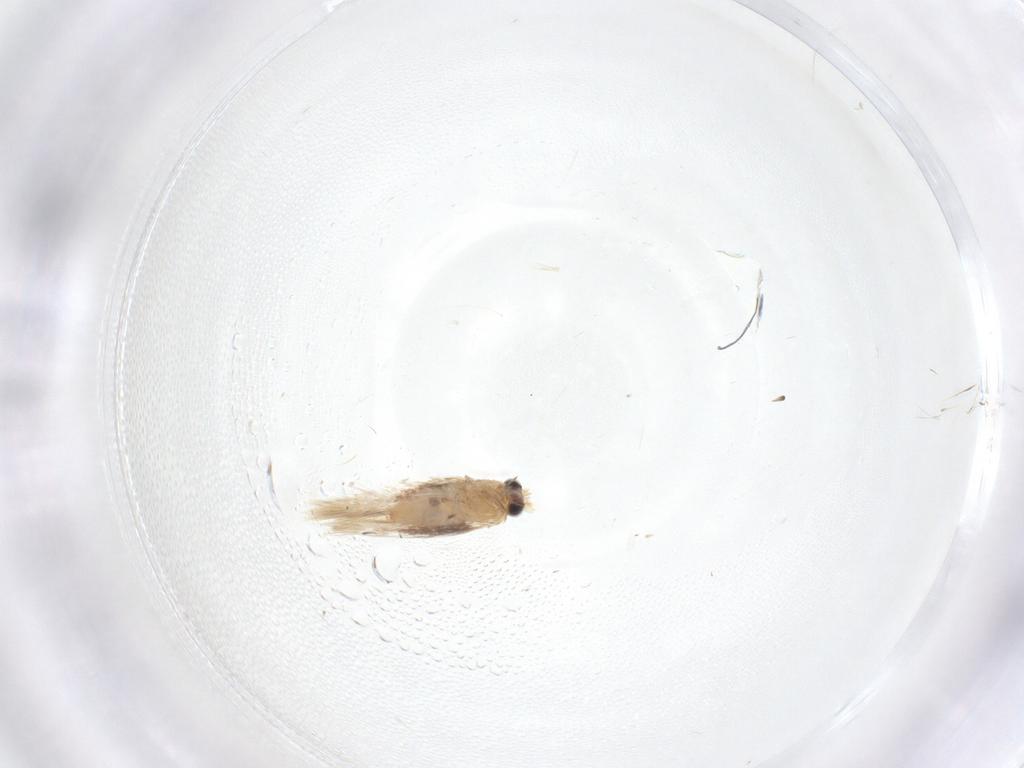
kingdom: Animalia
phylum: Arthropoda
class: Insecta
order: Lepidoptera
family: Nepticulidae
